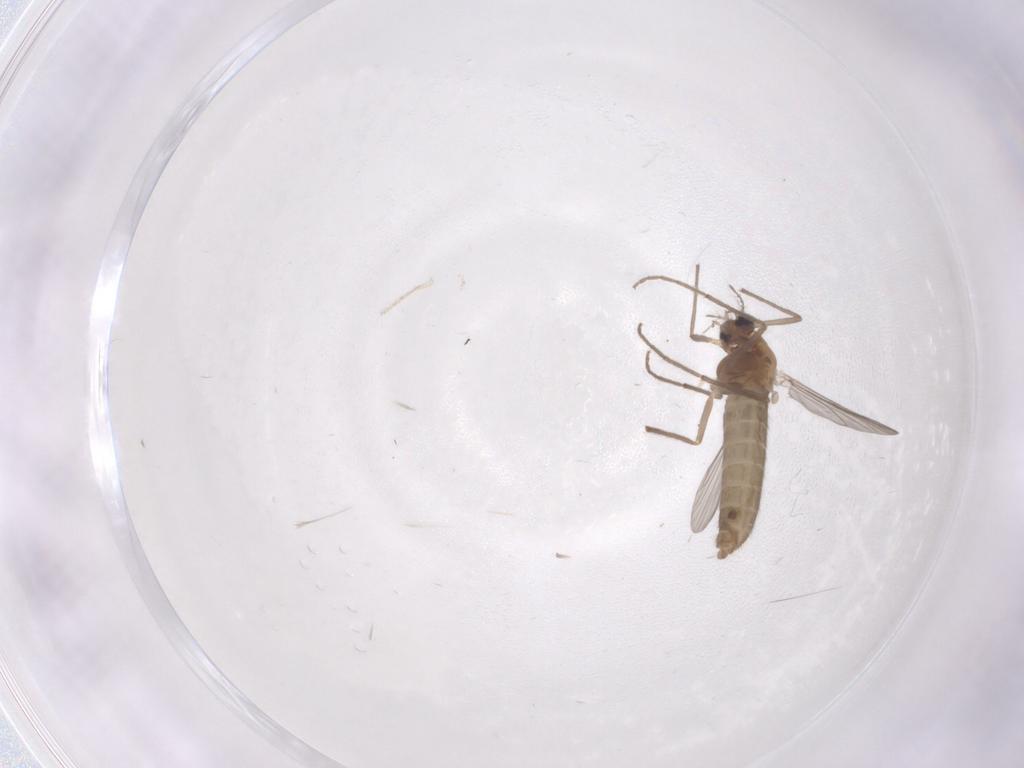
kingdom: Animalia
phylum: Arthropoda
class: Insecta
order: Diptera
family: Chironomidae
